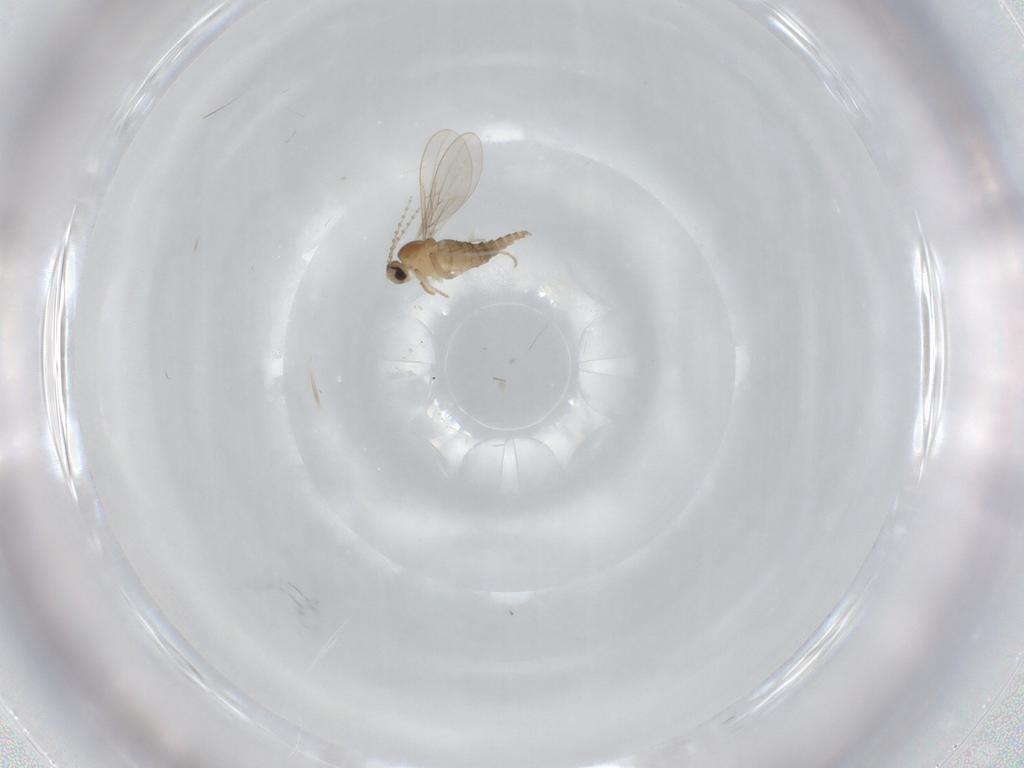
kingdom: Animalia
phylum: Arthropoda
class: Insecta
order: Diptera
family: Cecidomyiidae
